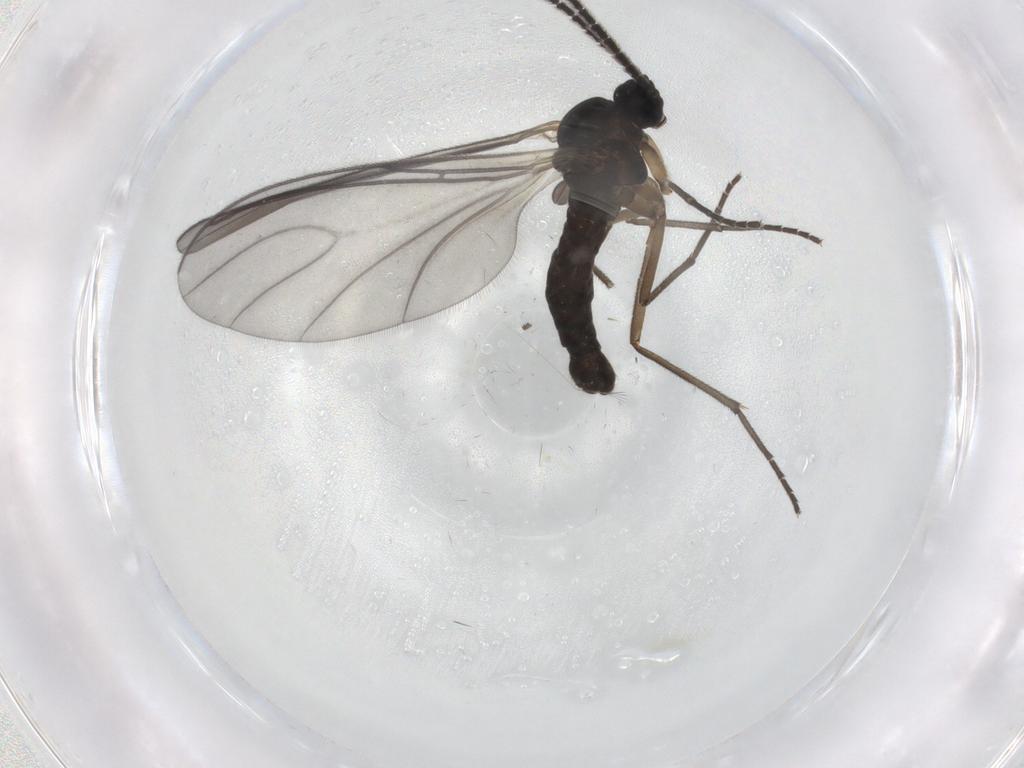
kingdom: Animalia
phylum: Arthropoda
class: Insecta
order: Diptera
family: Sciaridae
